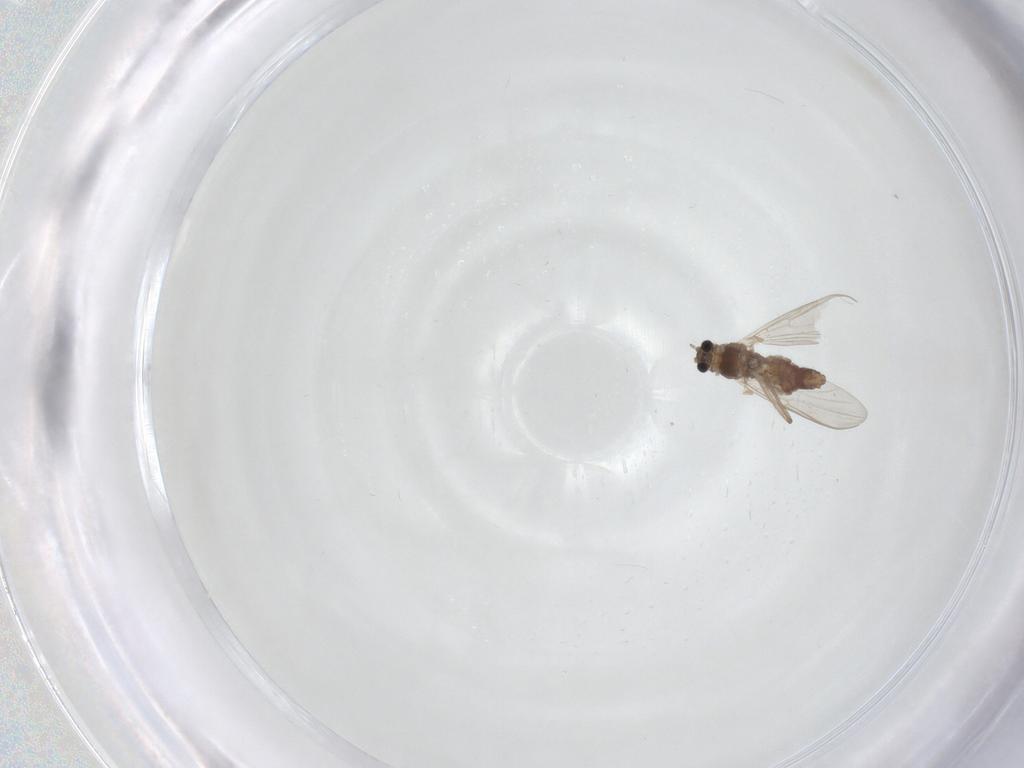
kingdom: Animalia
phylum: Arthropoda
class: Insecta
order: Diptera
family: Chironomidae
